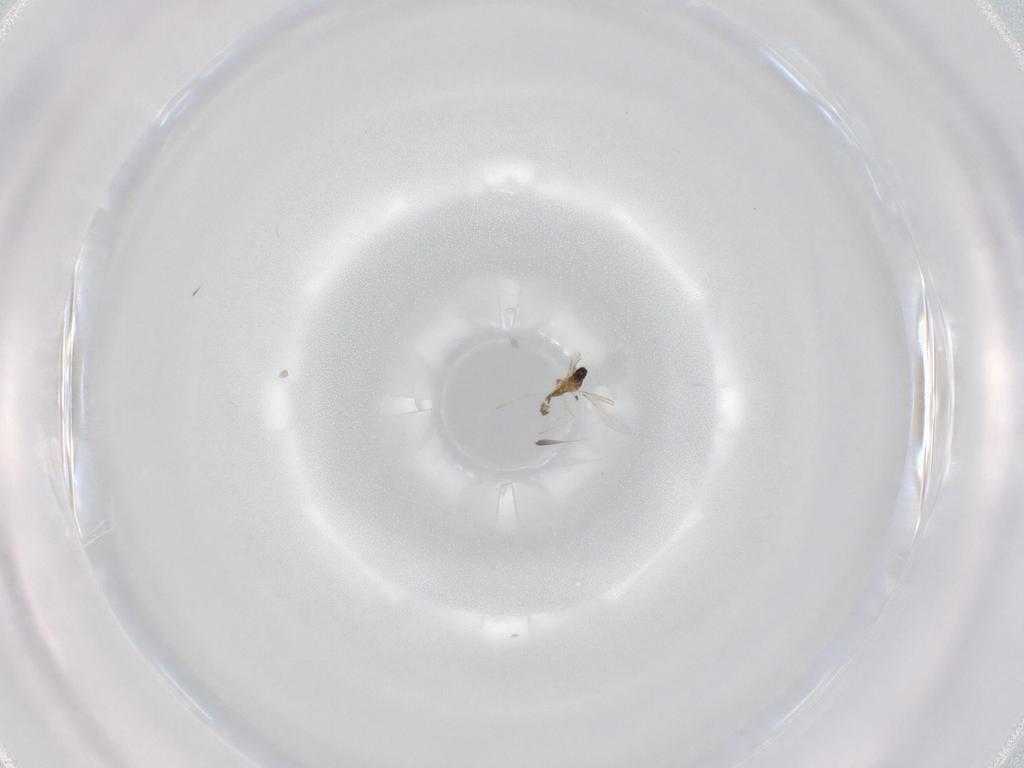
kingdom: Animalia
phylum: Arthropoda
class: Insecta
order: Diptera
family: Cecidomyiidae
